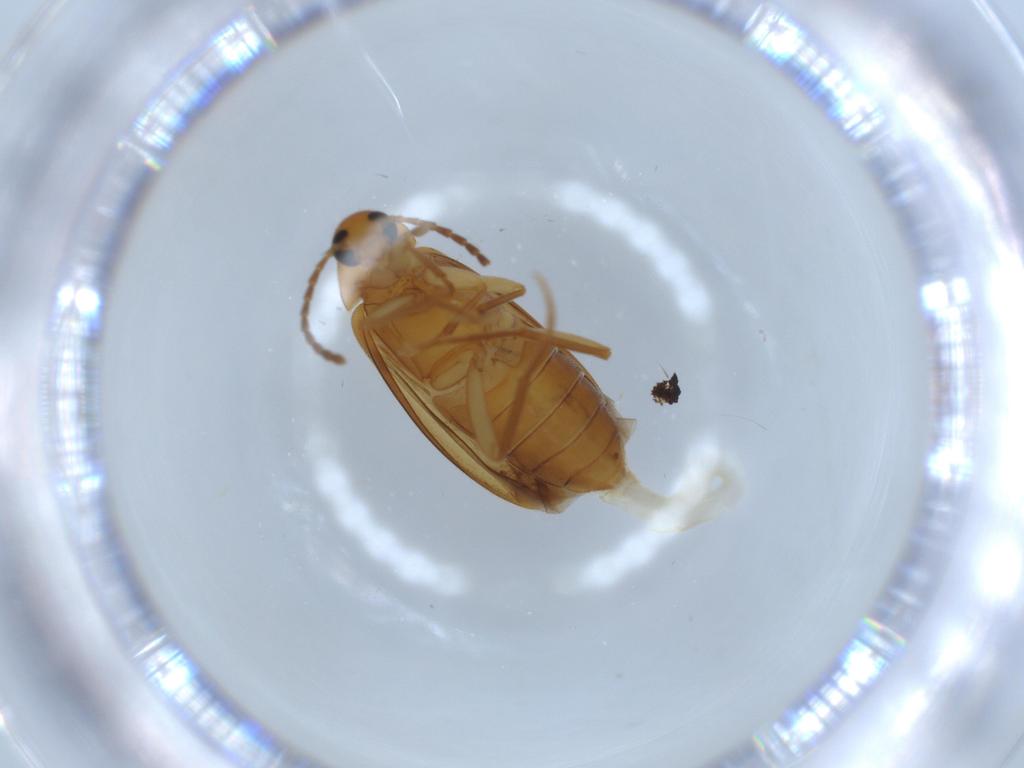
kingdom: Animalia
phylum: Arthropoda
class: Insecta
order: Coleoptera
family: Scraptiidae
